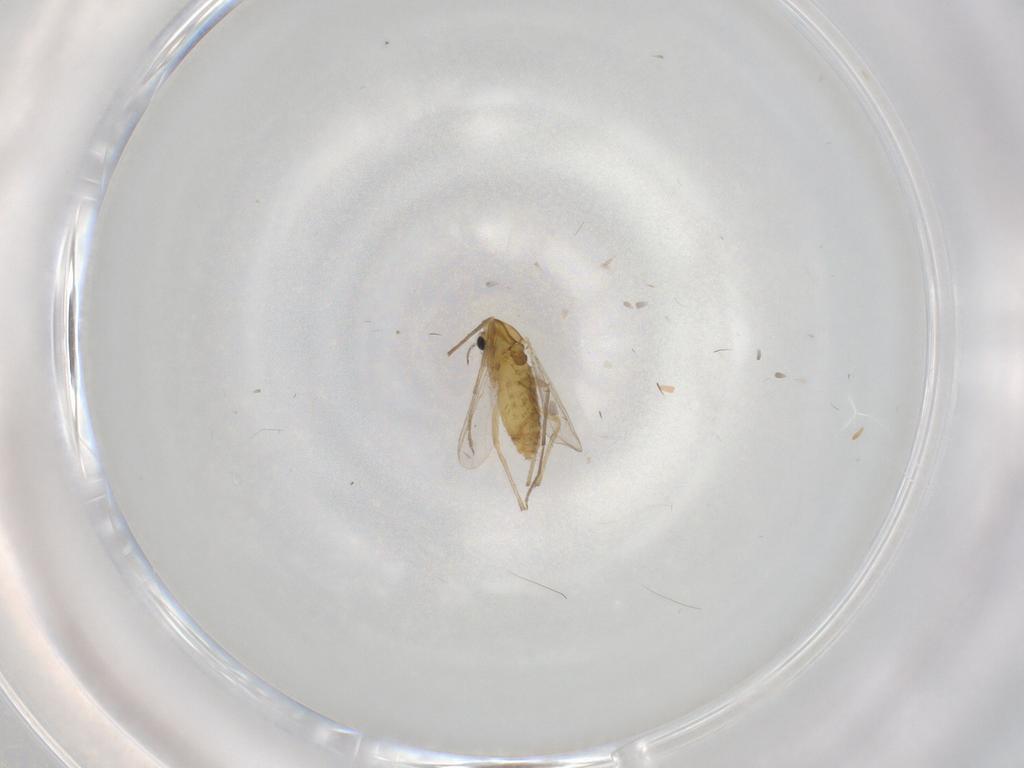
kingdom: Animalia
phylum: Arthropoda
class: Insecta
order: Diptera
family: Chironomidae
